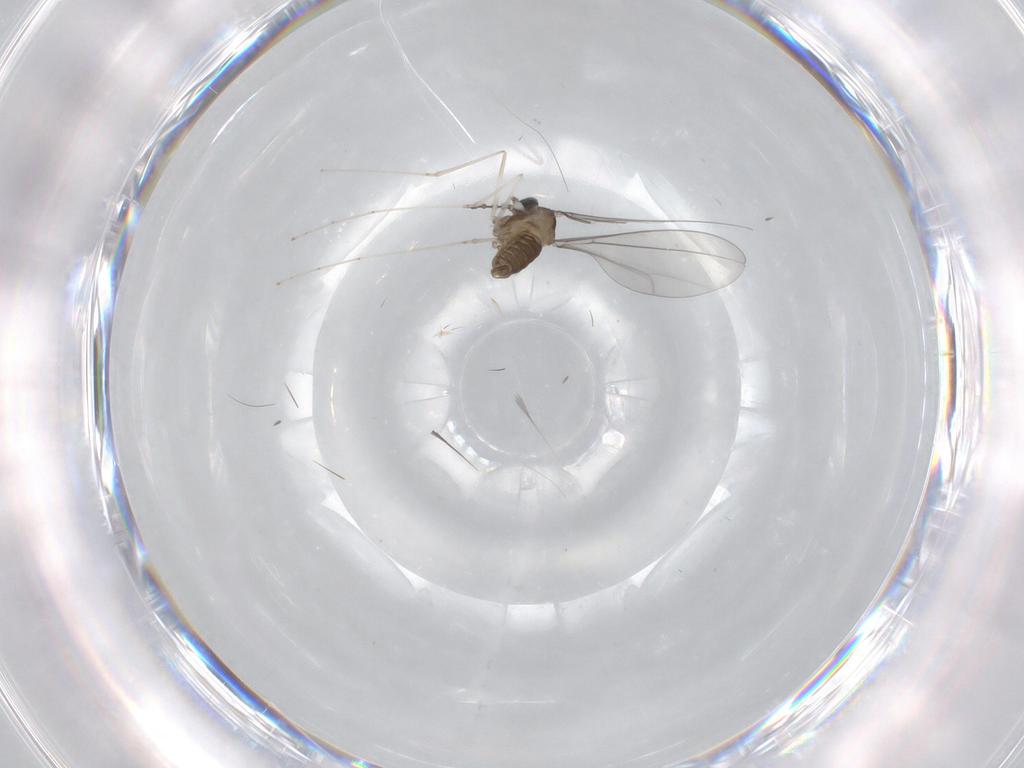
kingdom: Animalia
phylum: Arthropoda
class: Insecta
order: Diptera
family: Cecidomyiidae
